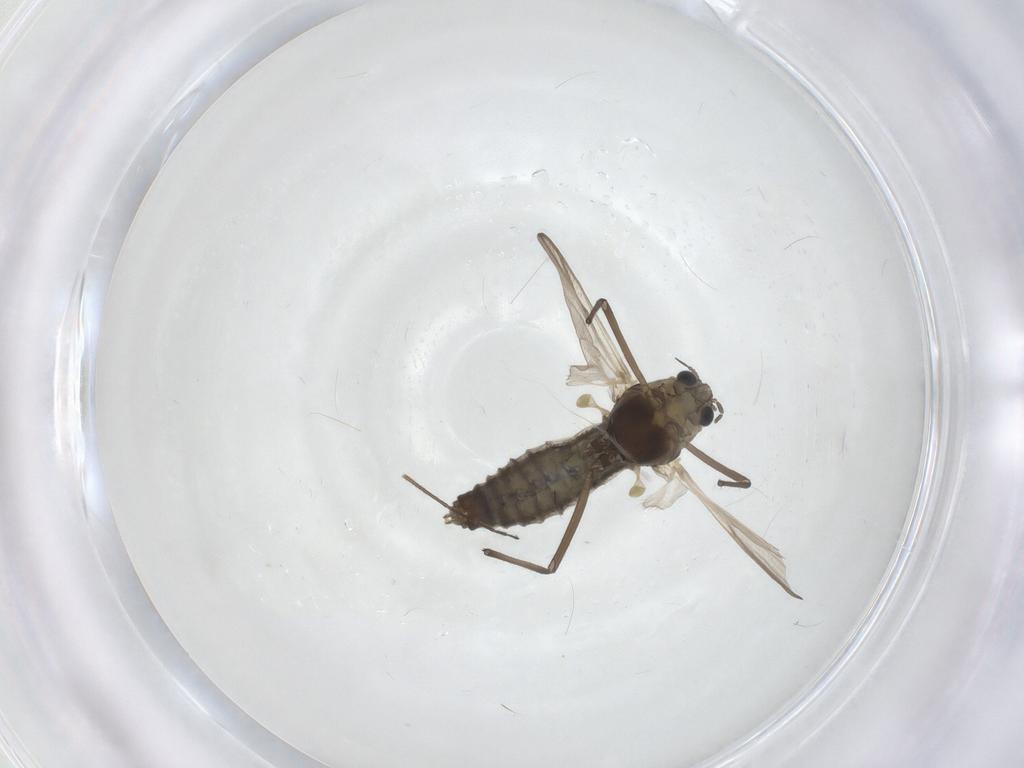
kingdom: Animalia
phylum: Arthropoda
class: Insecta
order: Diptera
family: Chironomidae
